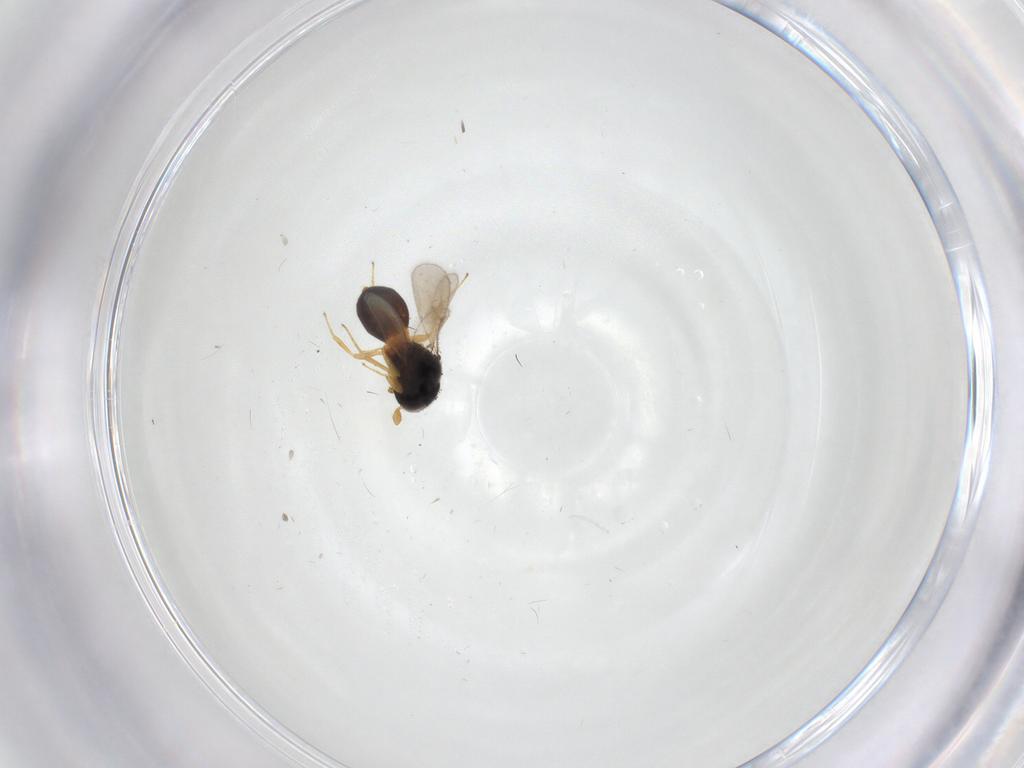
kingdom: Animalia
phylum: Arthropoda
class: Insecta
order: Hymenoptera
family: Scelionidae
